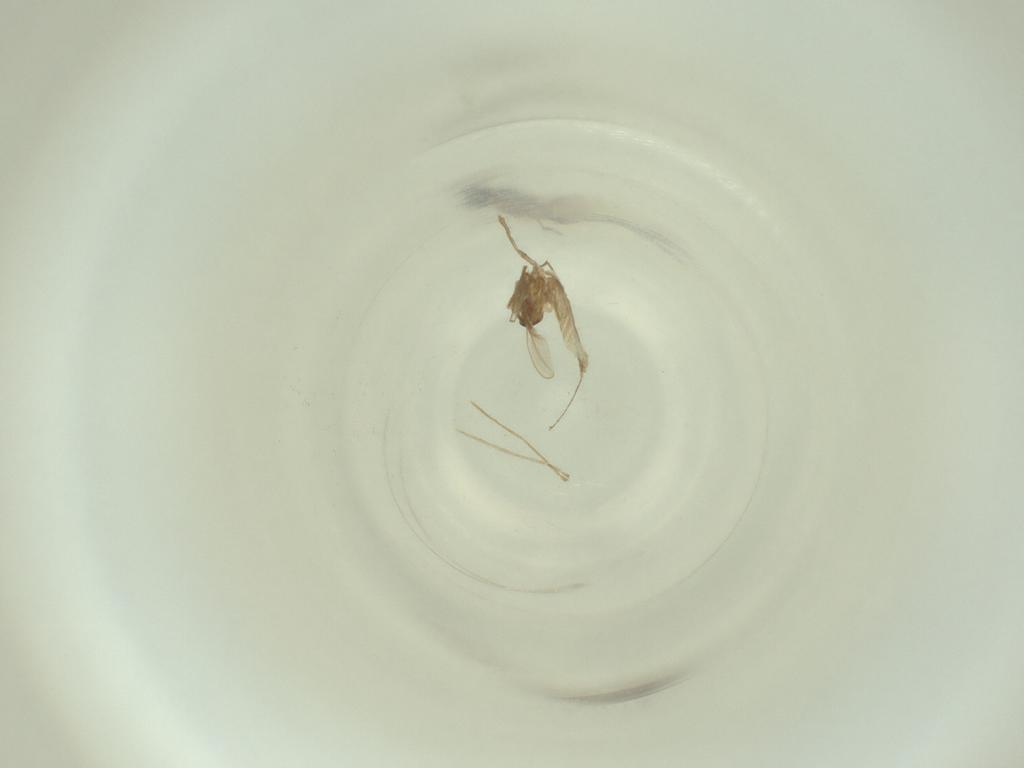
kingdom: Animalia
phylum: Arthropoda
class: Insecta
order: Diptera
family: Cecidomyiidae
